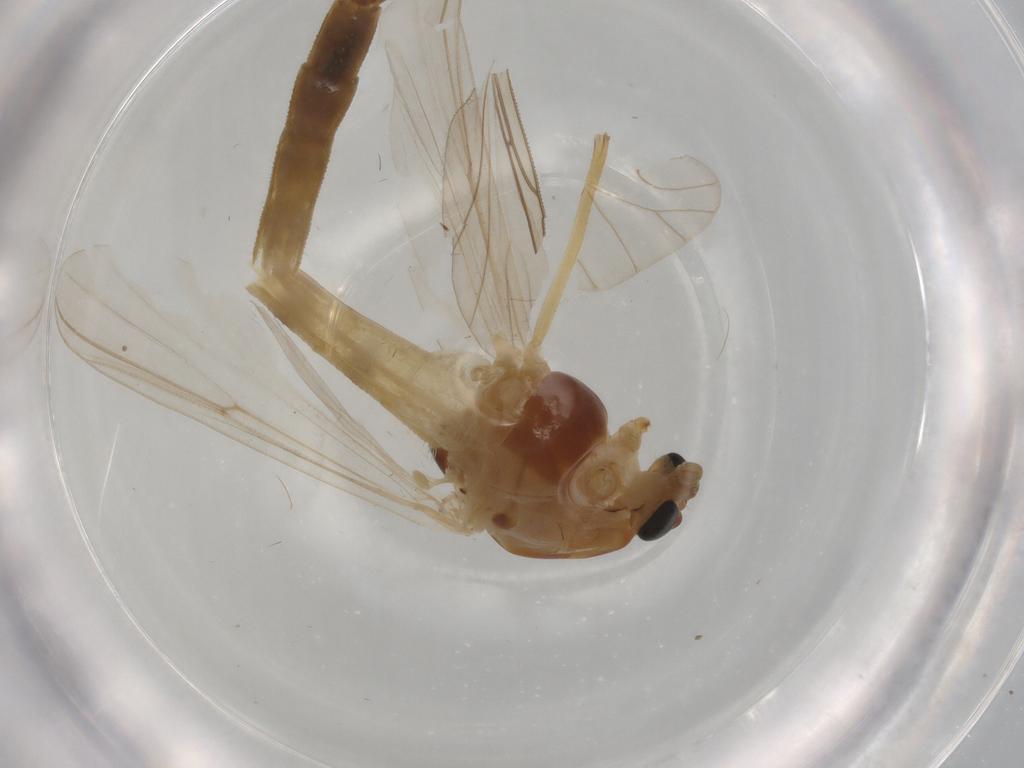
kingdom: Animalia
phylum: Arthropoda
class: Insecta
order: Diptera
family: Chironomidae
